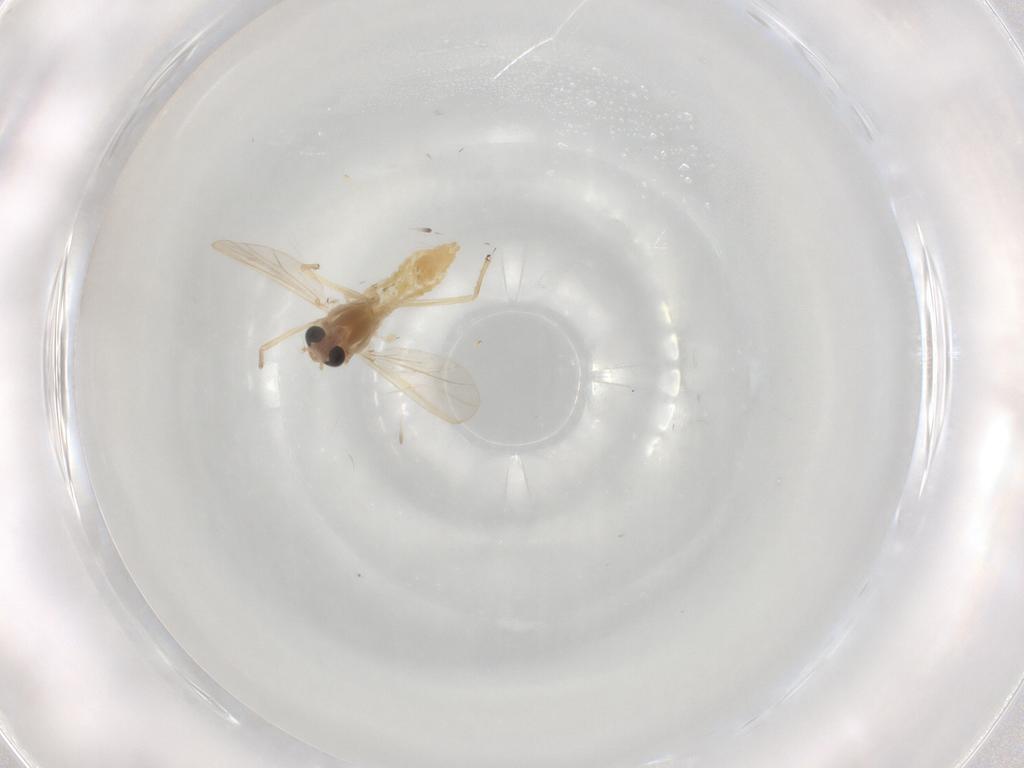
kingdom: Animalia
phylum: Arthropoda
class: Insecta
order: Diptera
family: Chironomidae
